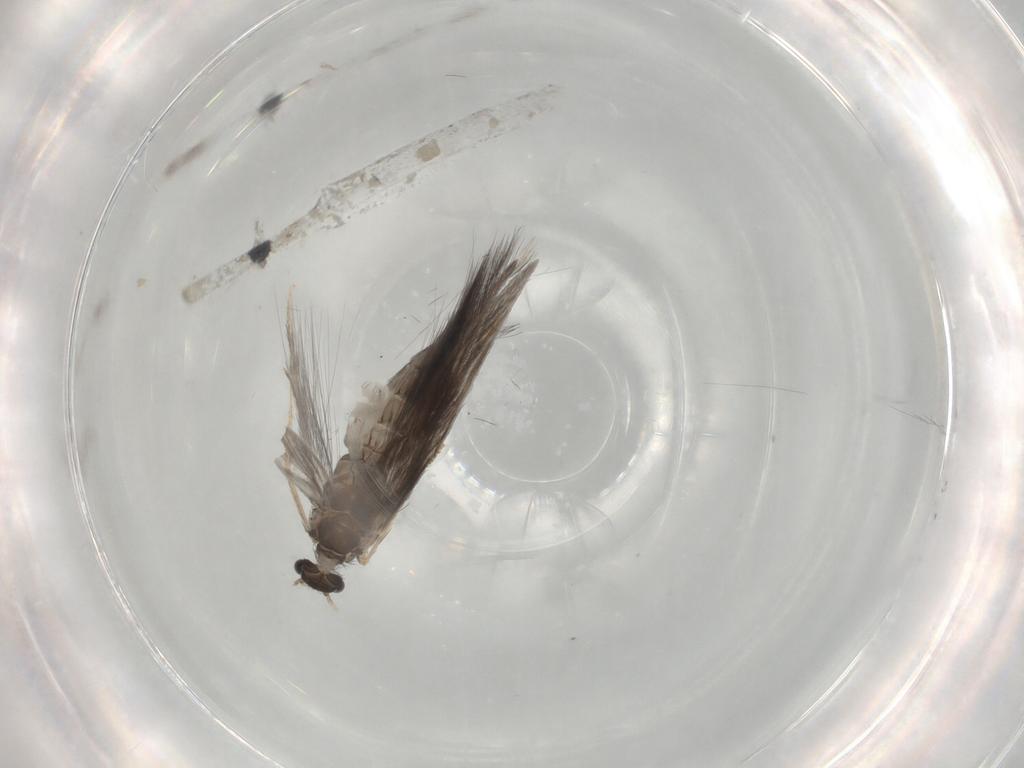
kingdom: Animalia
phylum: Arthropoda
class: Insecta
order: Trichoptera
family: Hydroptilidae
